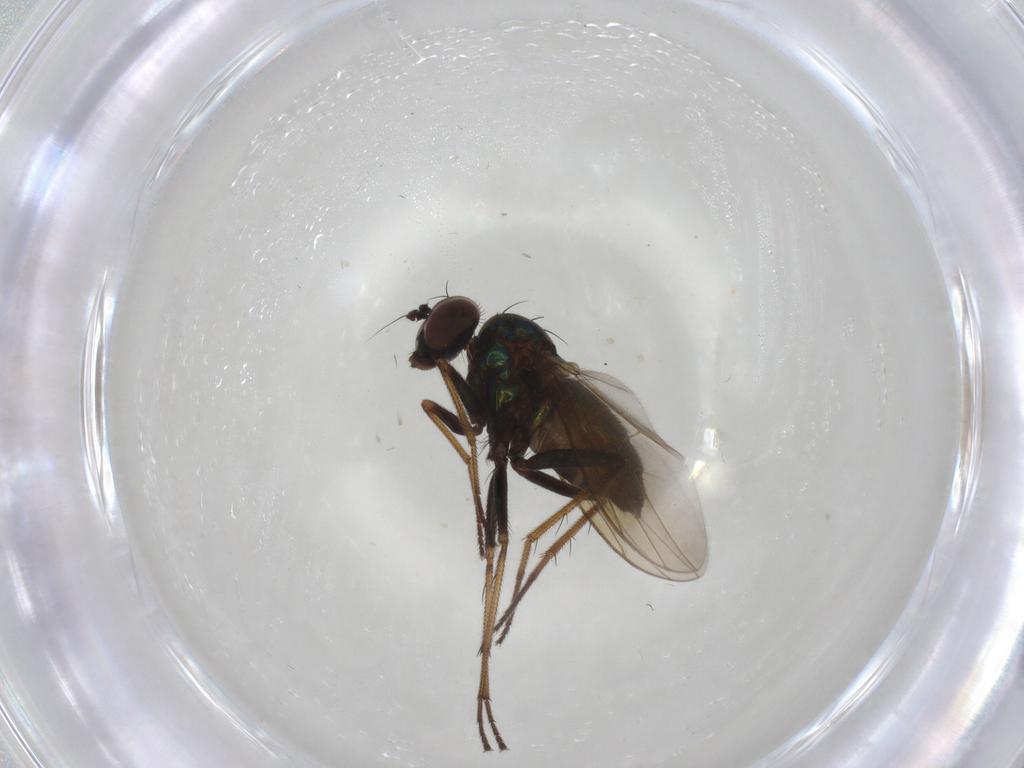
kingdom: Animalia
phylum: Arthropoda
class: Insecta
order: Diptera
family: Dolichopodidae
